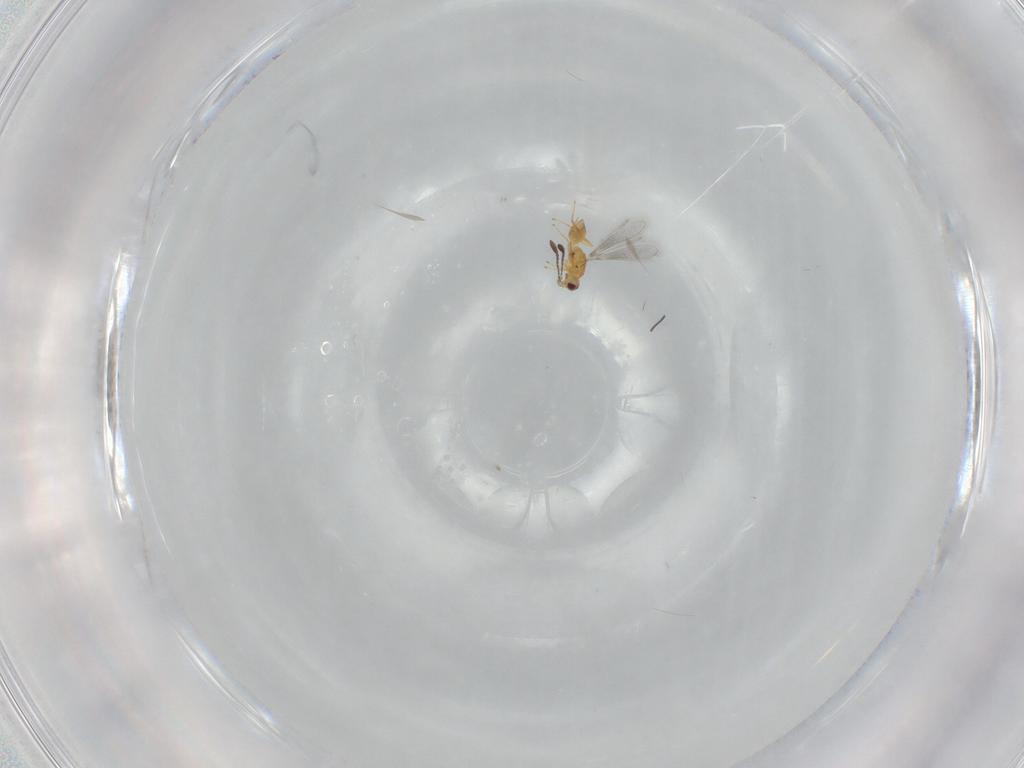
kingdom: Animalia
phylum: Arthropoda
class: Insecta
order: Hymenoptera
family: Mymaridae
